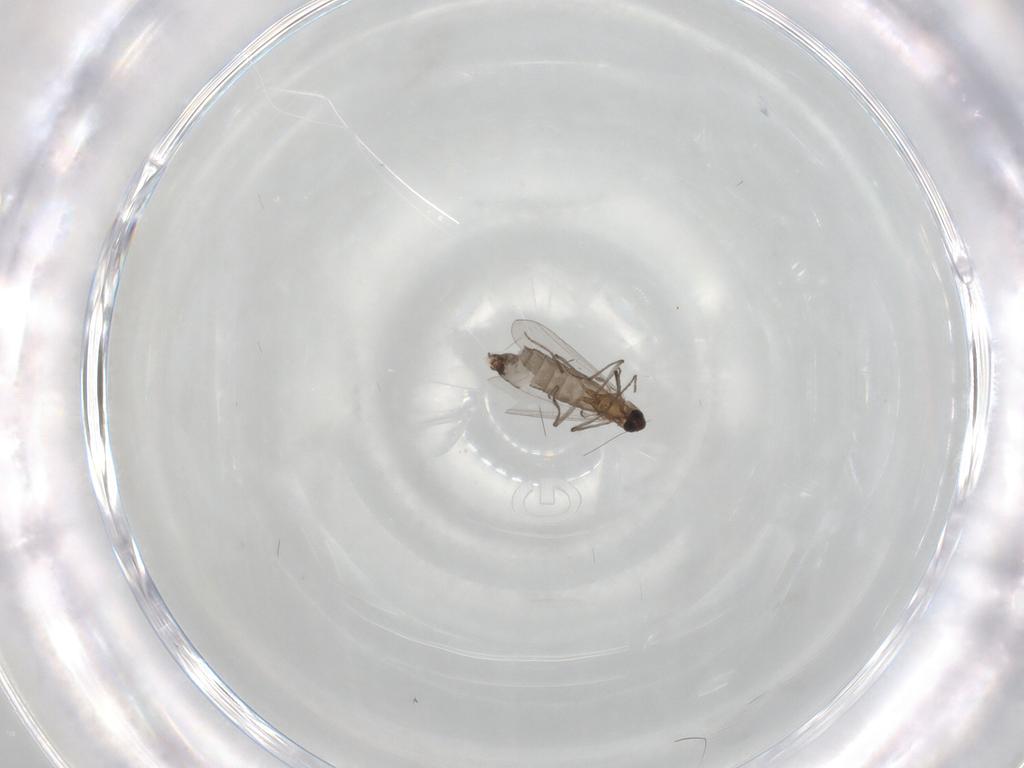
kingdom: Animalia
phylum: Arthropoda
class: Insecta
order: Diptera
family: Chironomidae
